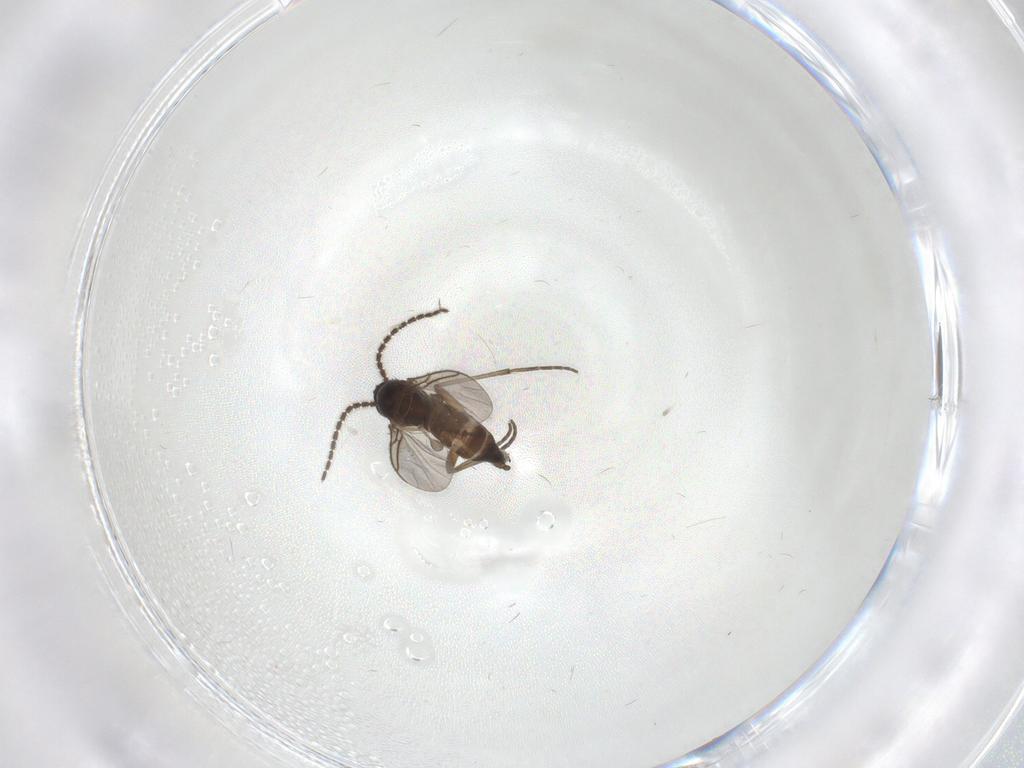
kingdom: Animalia
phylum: Arthropoda
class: Insecta
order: Diptera
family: Sciaridae
